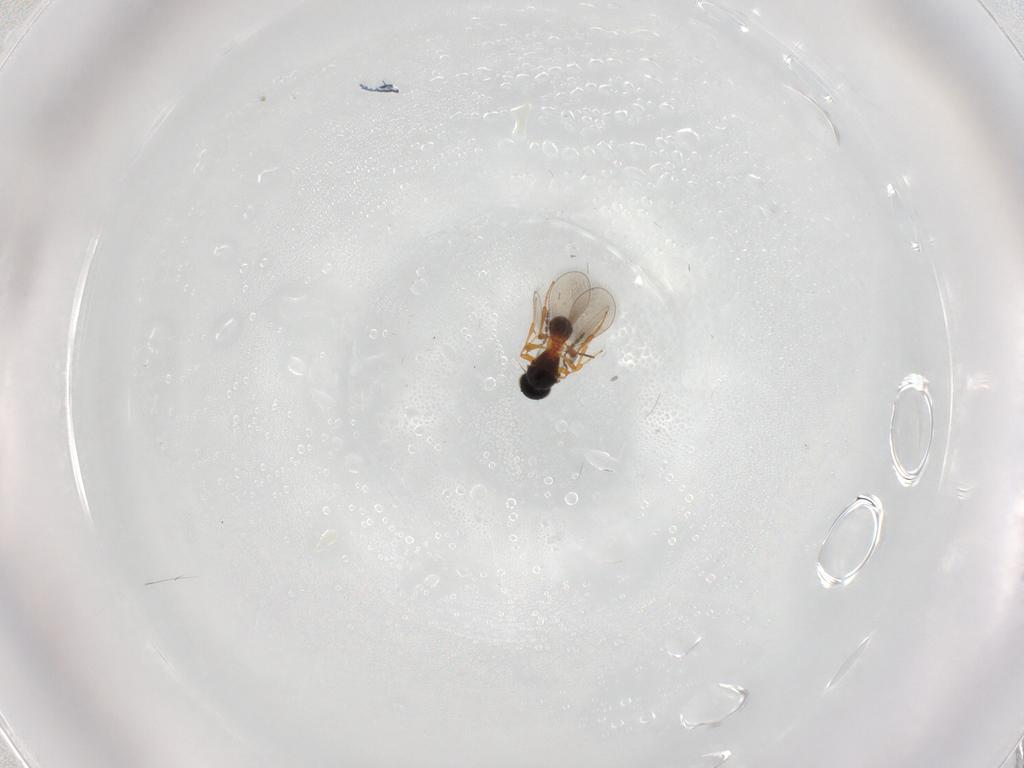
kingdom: Animalia
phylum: Arthropoda
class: Insecta
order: Hymenoptera
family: Platygastridae
